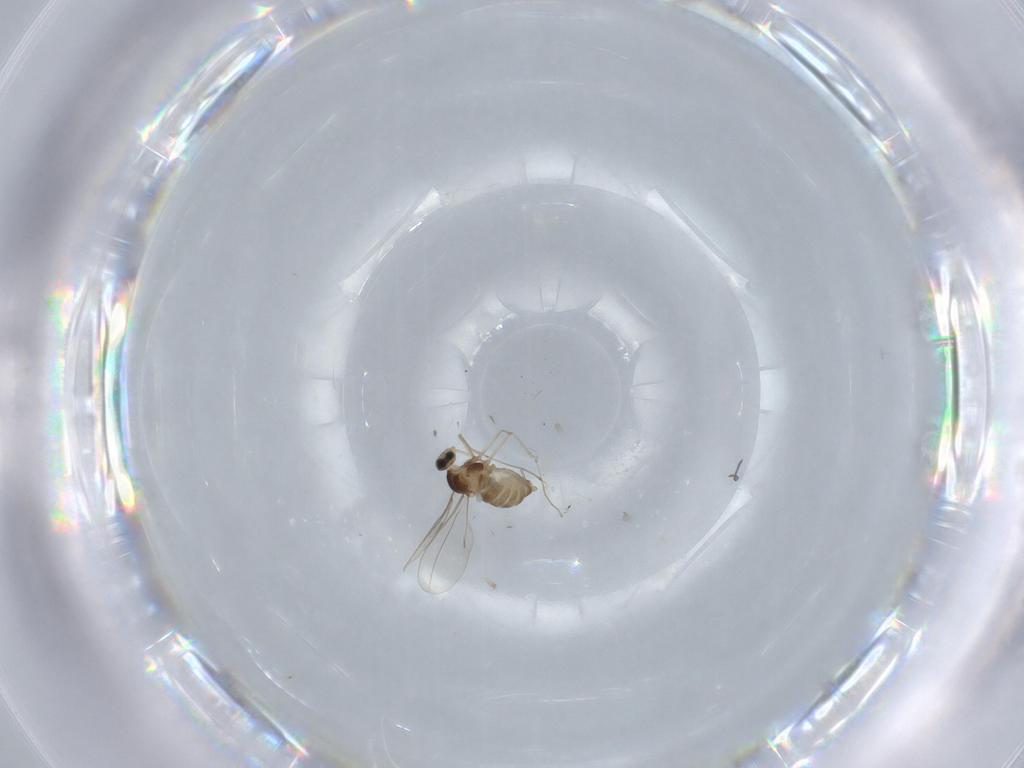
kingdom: Animalia
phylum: Arthropoda
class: Insecta
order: Diptera
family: Cecidomyiidae
